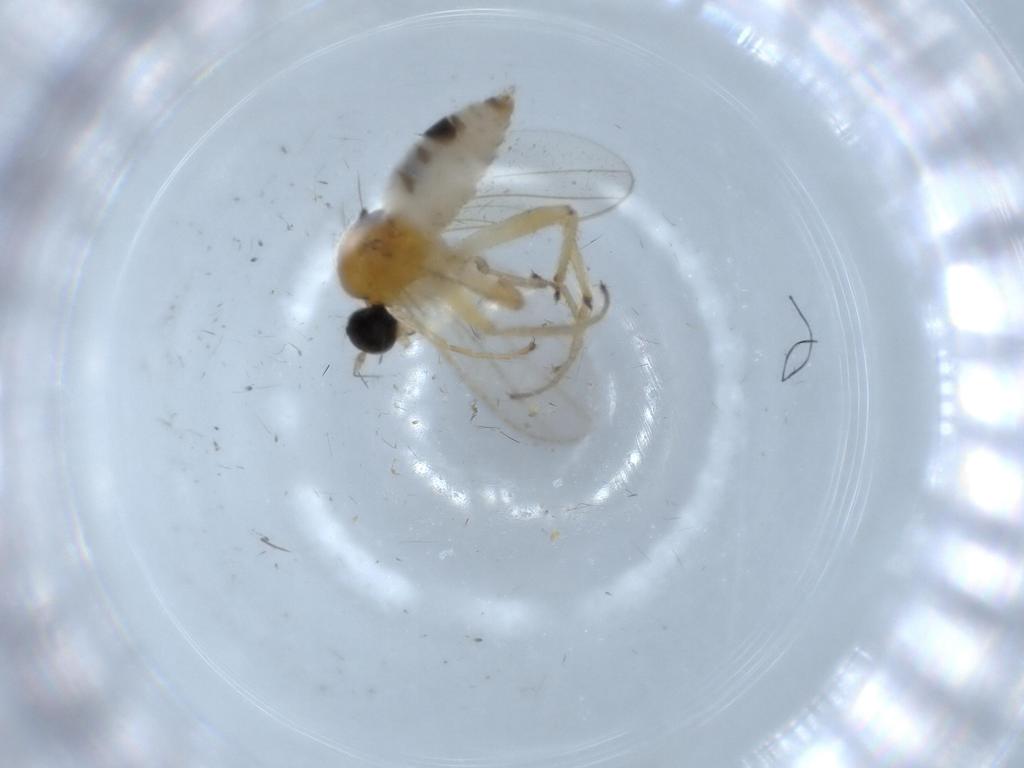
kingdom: Animalia
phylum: Arthropoda
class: Insecta
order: Diptera
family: Hybotidae
